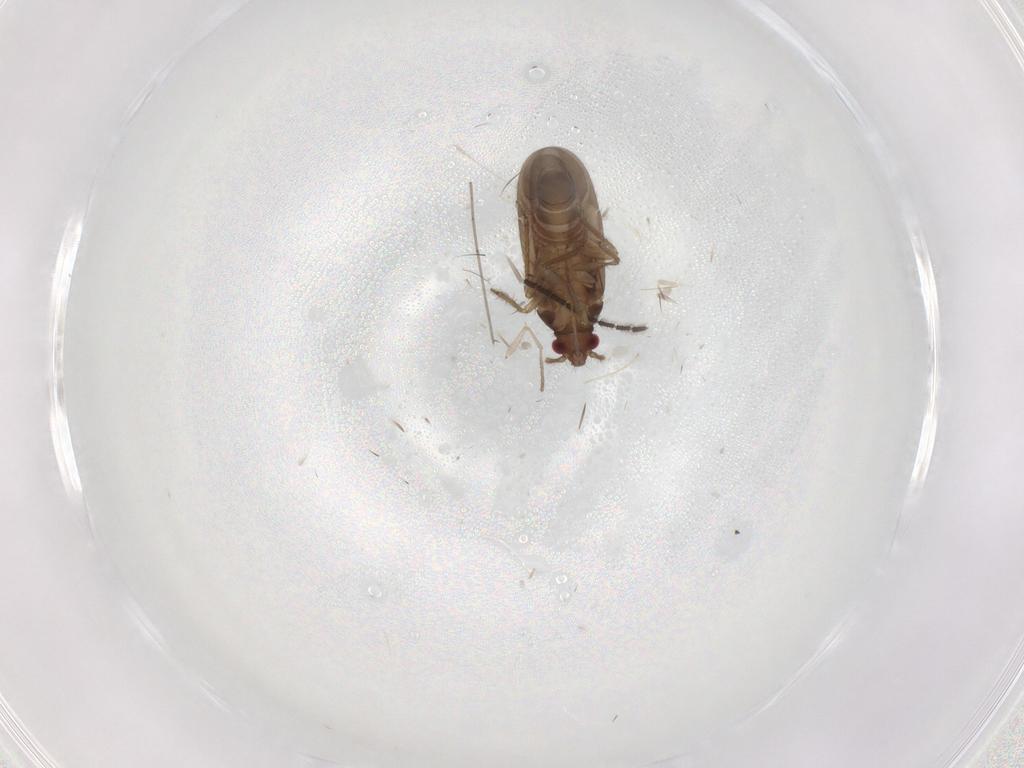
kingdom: Animalia
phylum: Arthropoda
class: Insecta
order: Hemiptera
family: Ceratocombidae
